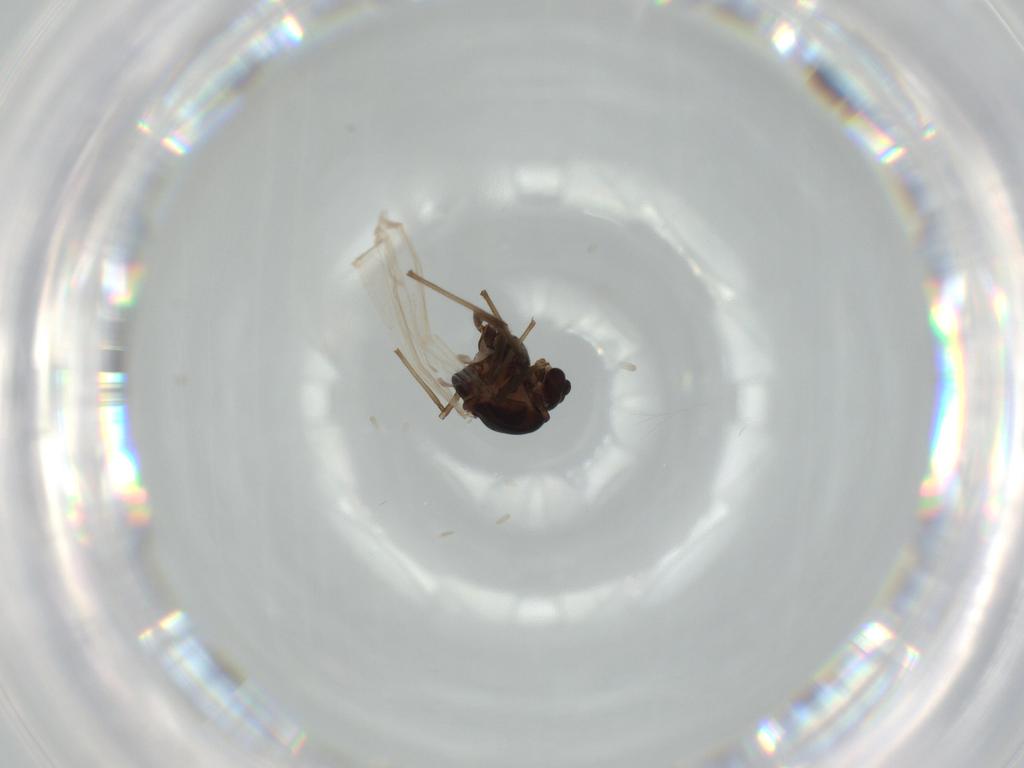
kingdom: Animalia
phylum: Arthropoda
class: Insecta
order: Diptera
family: Chironomidae
